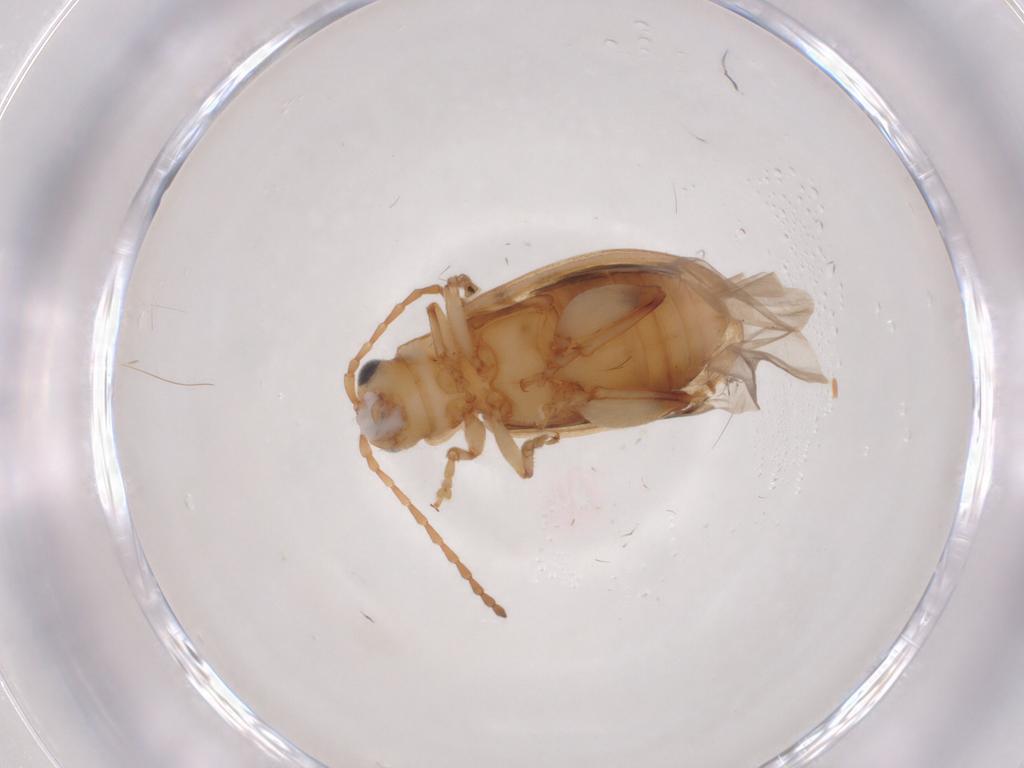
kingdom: Animalia
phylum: Arthropoda
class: Insecta
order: Coleoptera
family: Chrysomelidae
